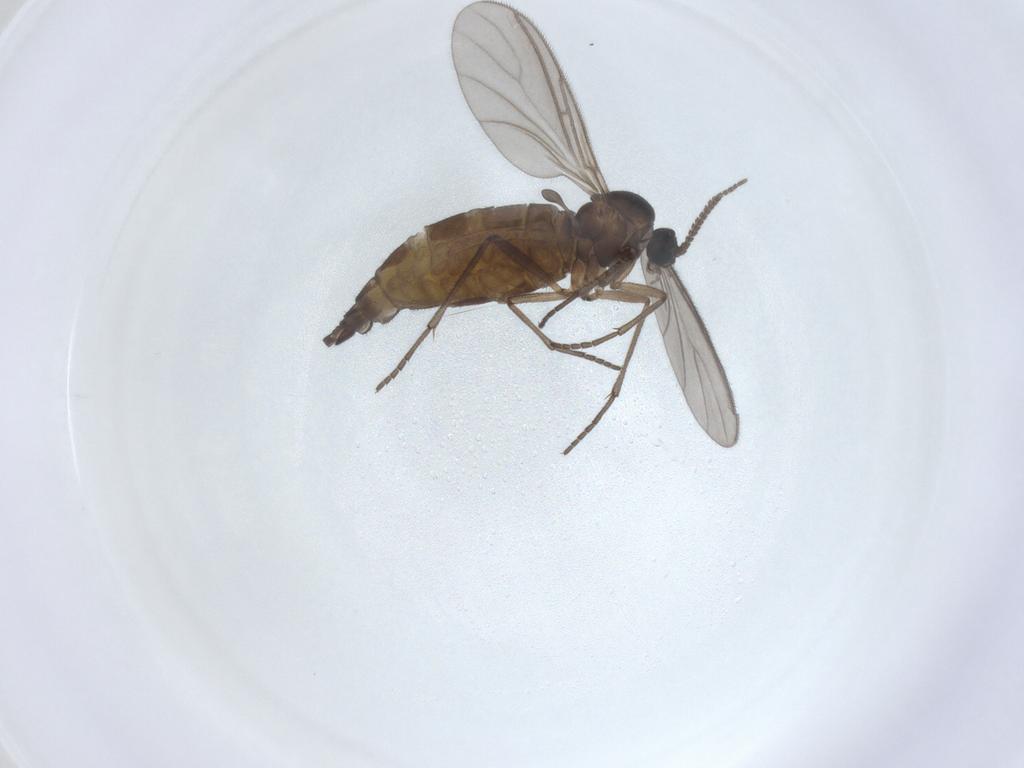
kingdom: Animalia
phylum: Arthropoda
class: Insecta
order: Diptera
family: Sciaridae
